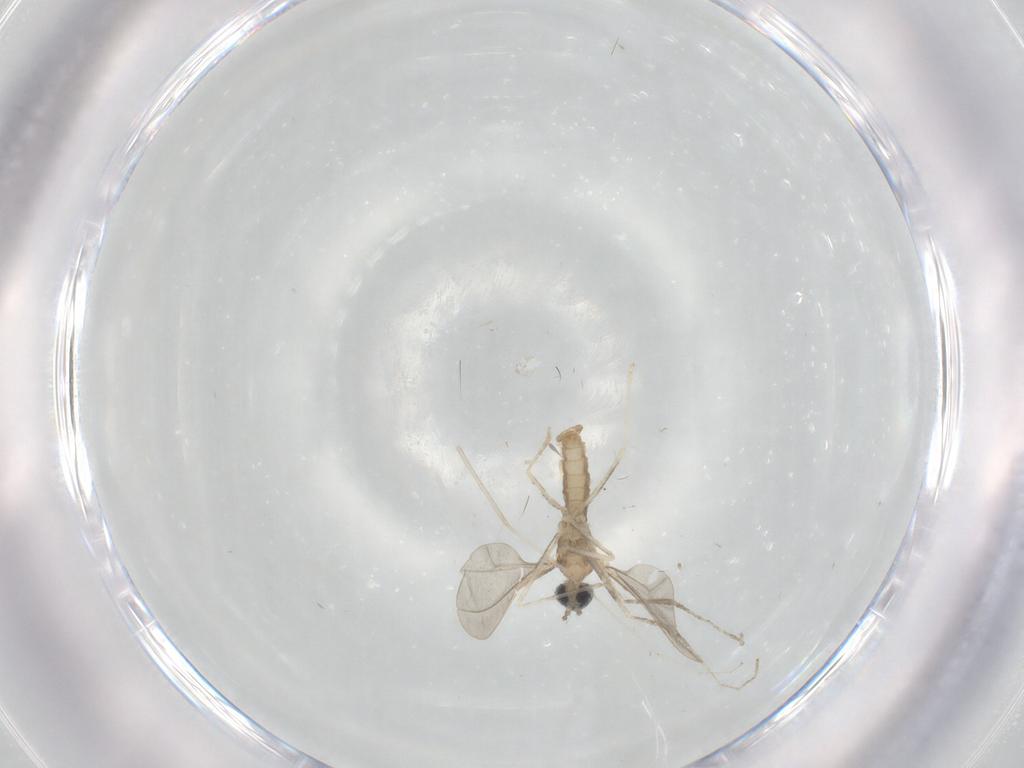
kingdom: Animalia
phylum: Arthropoda
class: Insecta
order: Diptera
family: Cecidomyiidae
